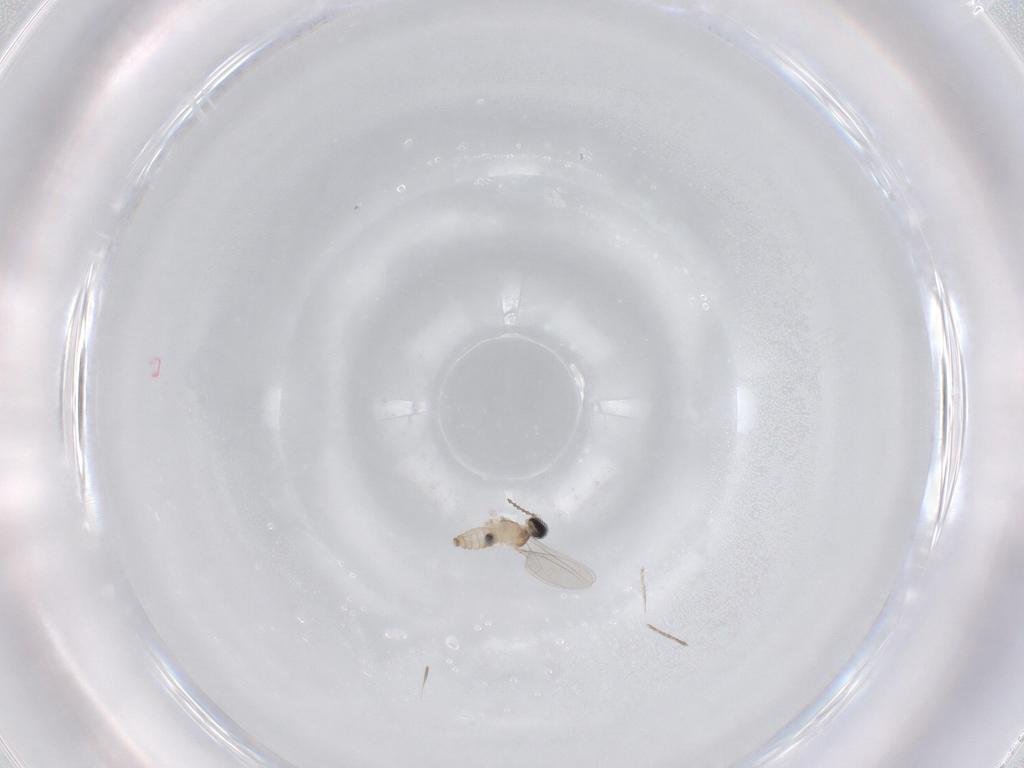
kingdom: Animalia
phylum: Arthropoda
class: Insecta
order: Diptera
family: Cecidomyiidae
